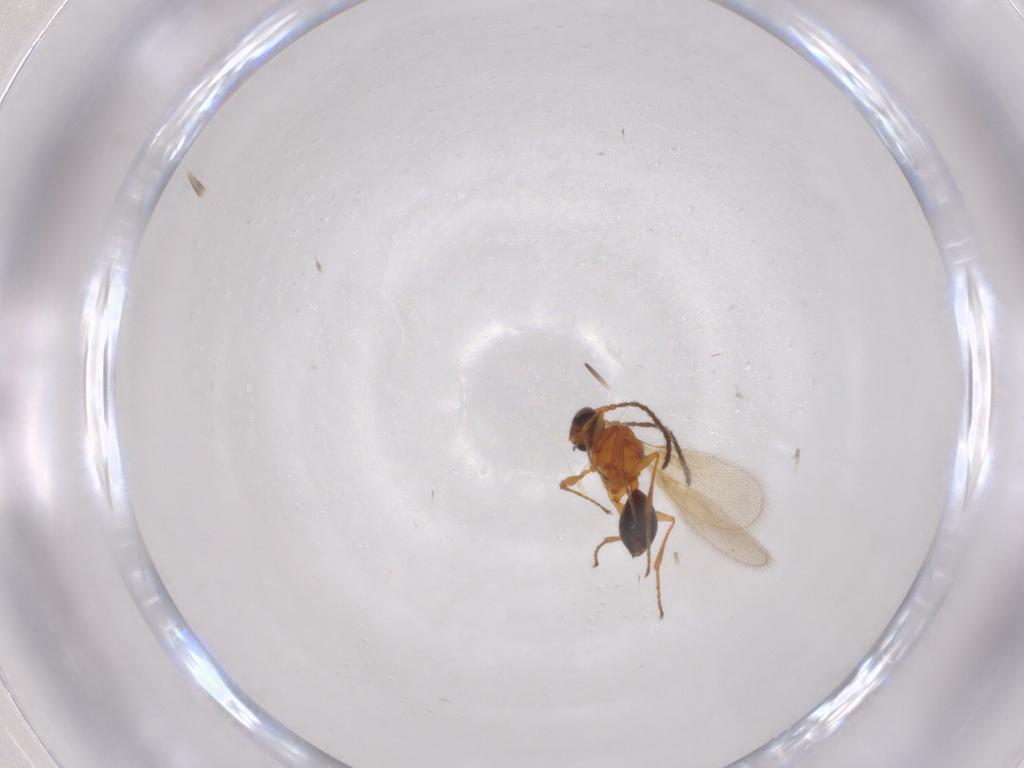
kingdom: Animalia
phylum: Arthropoda
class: Insecta
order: Hymenoptera
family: Diapriidae
